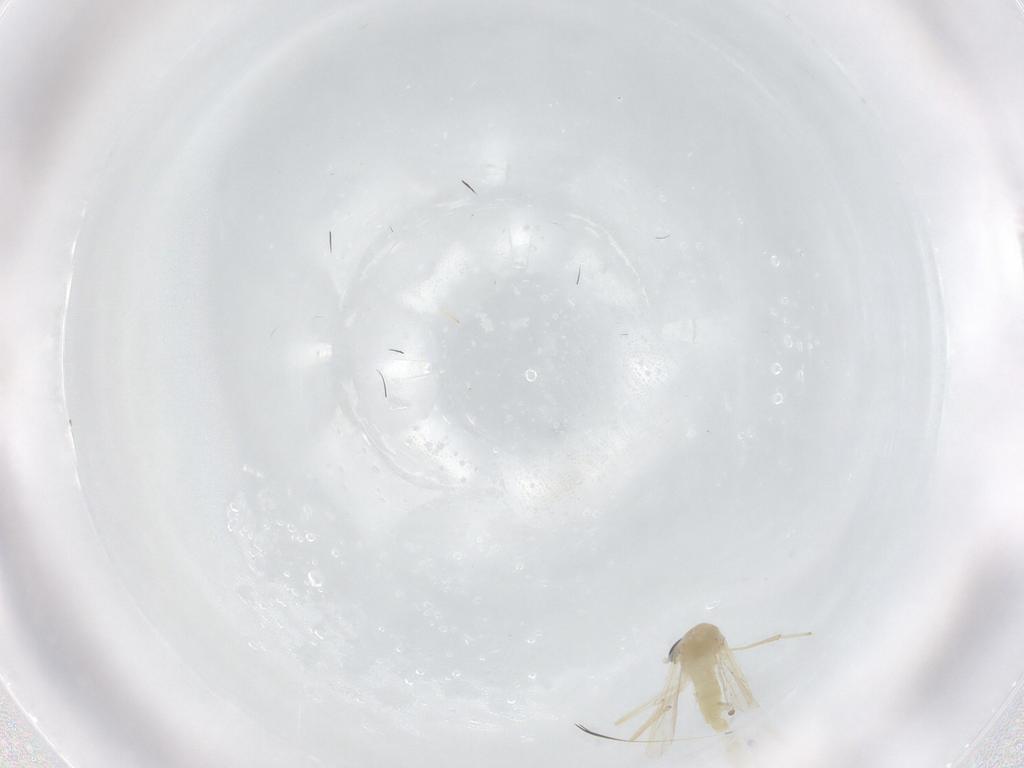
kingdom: Animalia
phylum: Arthropoda
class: Insecta
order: Diptera
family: Chironomidae
